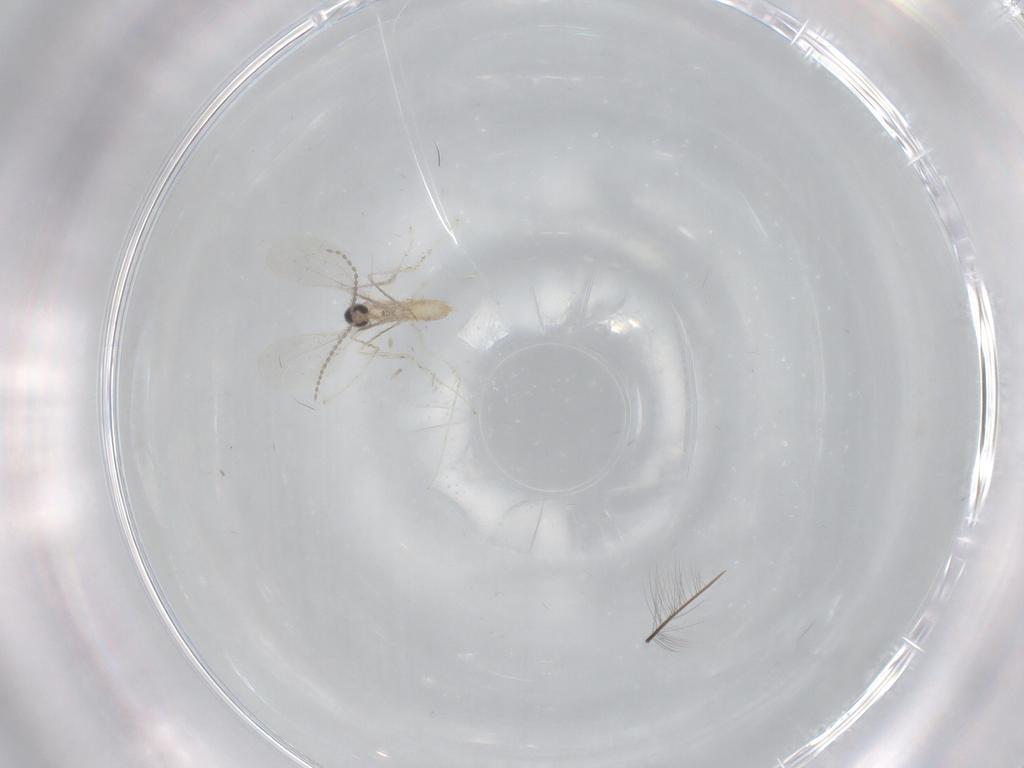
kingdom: Animalia
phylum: Arthropoda
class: Insecta
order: Diptera
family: Cecidomyiidae
